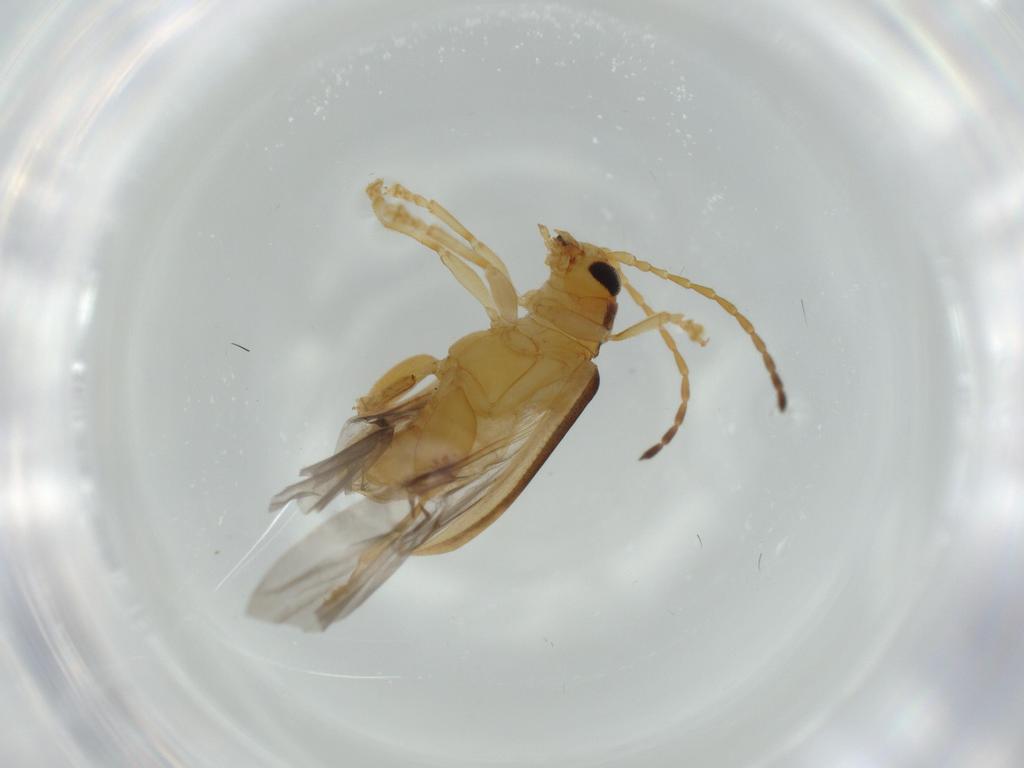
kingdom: Animalia
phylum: Arthropoda
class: Insecta
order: Coleoptera
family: Chrysomelidae
